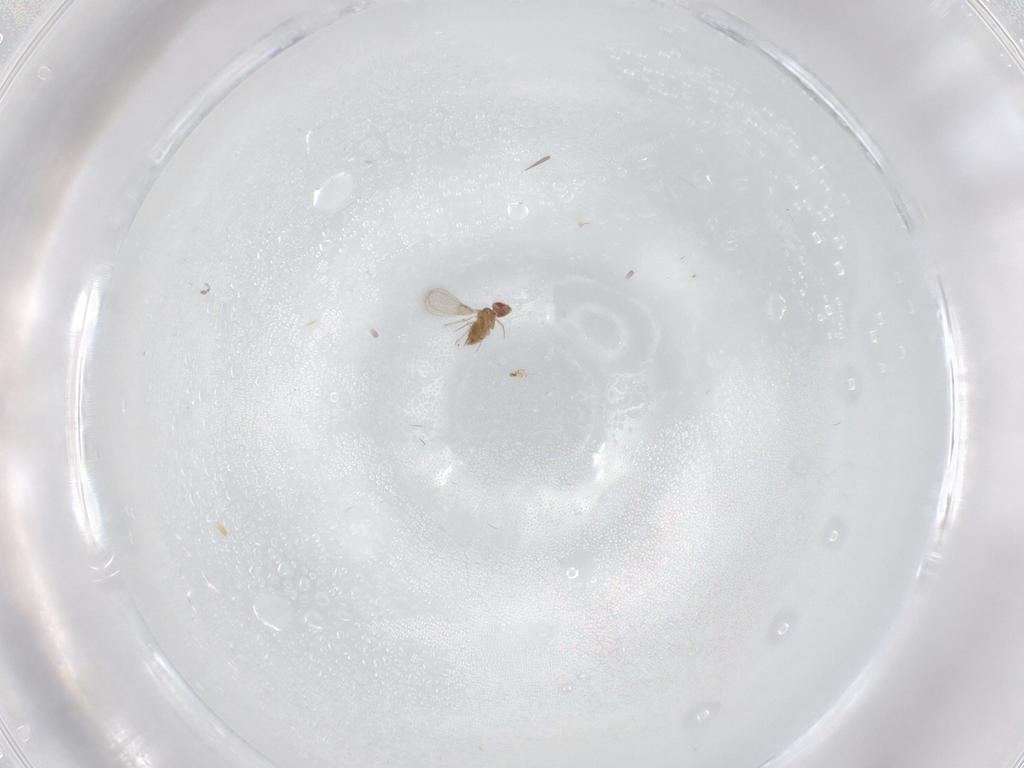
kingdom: Animalia
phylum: Arthropoda
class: Insecta
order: Hymenoptera
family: Trichogrammatidae
